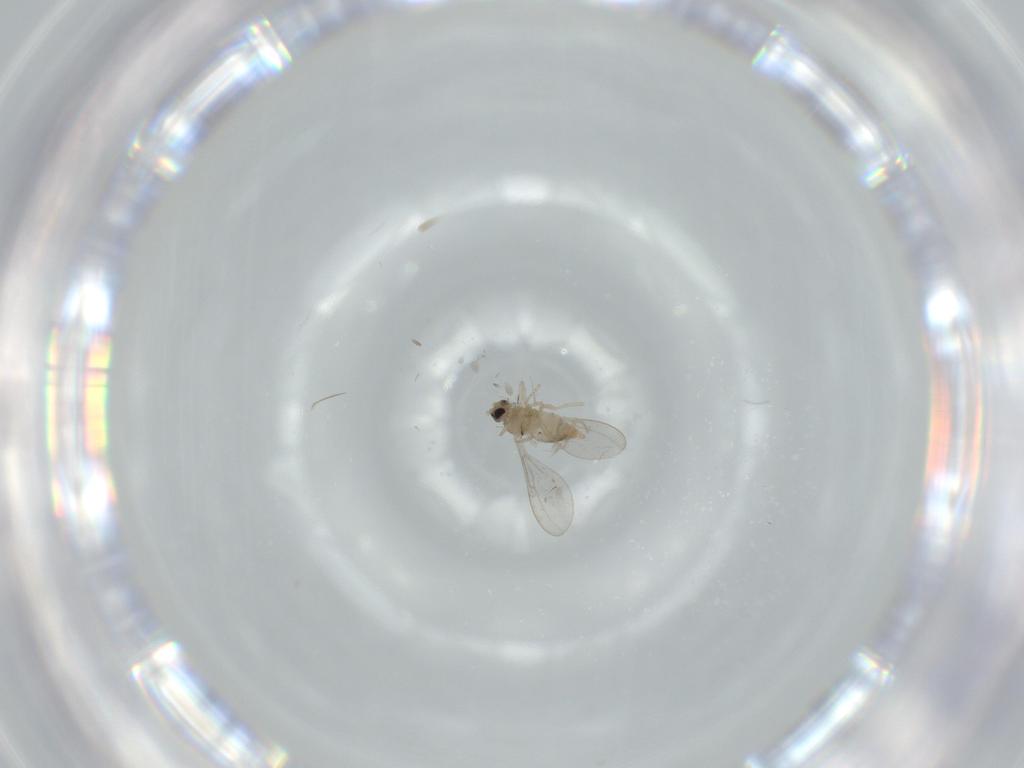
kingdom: Animalia
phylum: Arthropoda
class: Insecta
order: Diptera
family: Cecidomyiidae
